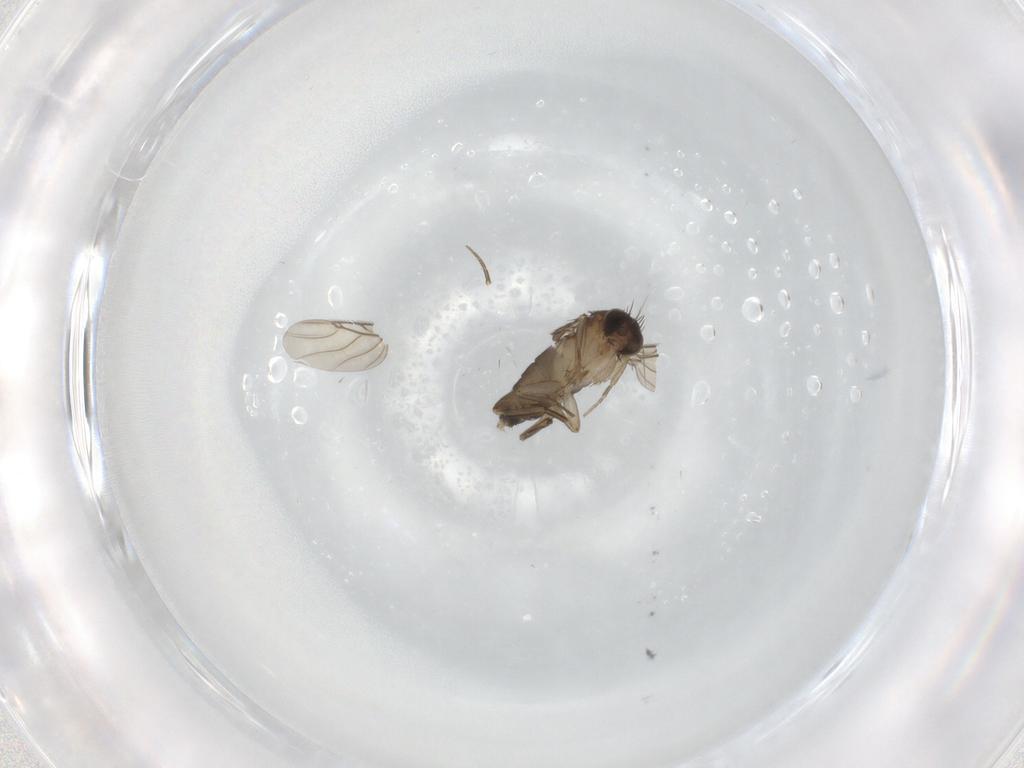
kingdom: Animalia
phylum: Arthropoda
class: Insecta
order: Diptera
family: Phoridae
